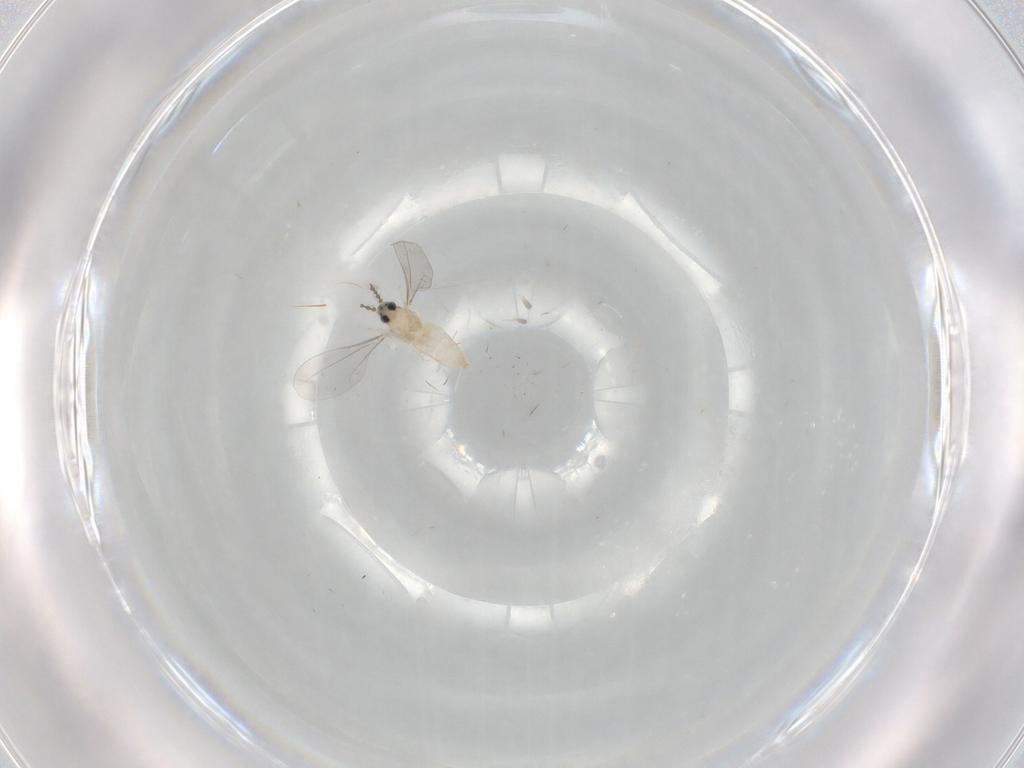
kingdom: Animalia
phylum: Arthropoda
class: Insecta
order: Diptera
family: Cecidomyiidae
